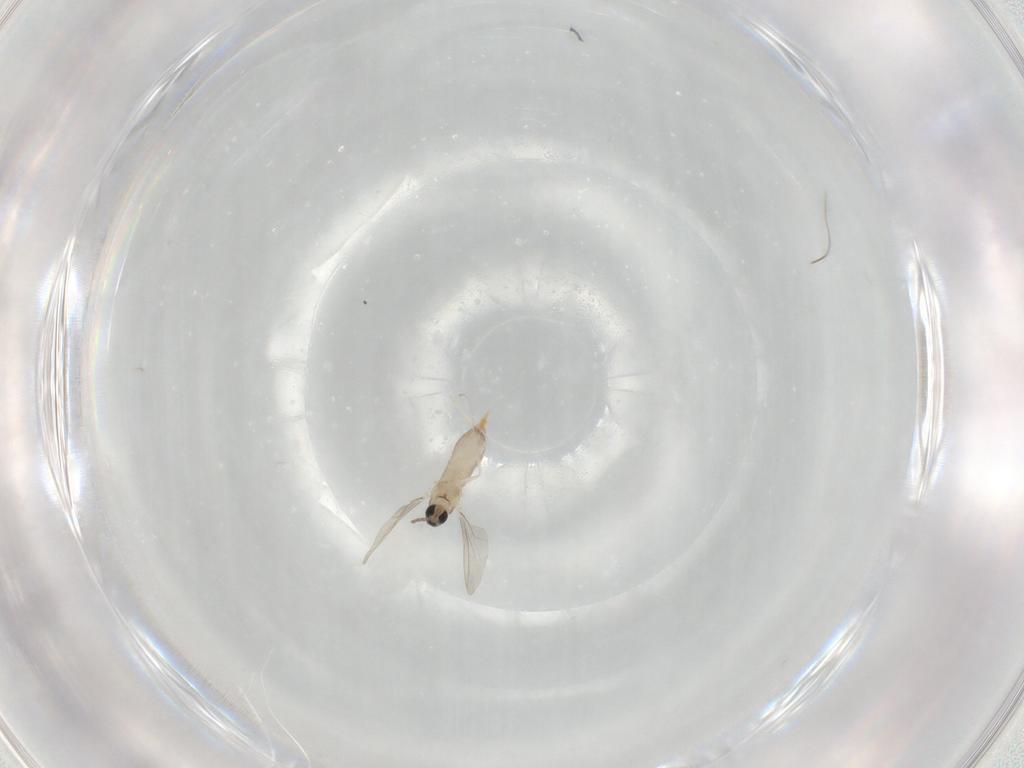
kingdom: Animalia
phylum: Arthropoda
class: Insecta
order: Diptera
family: Cecidomyiidae
